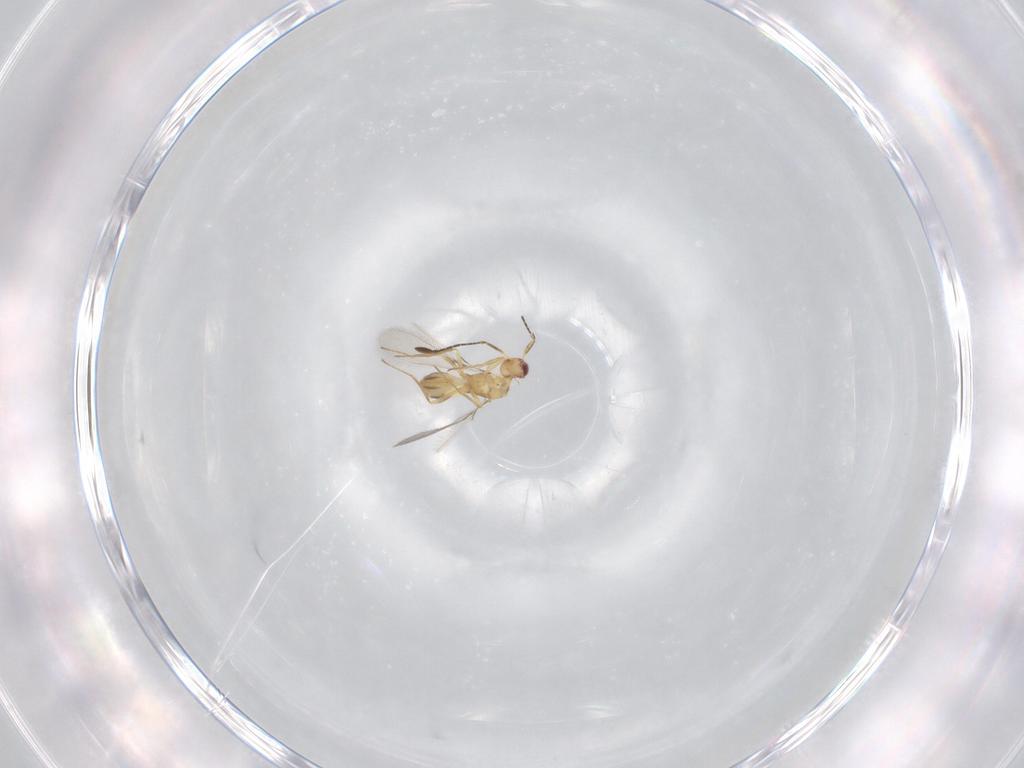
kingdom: Animalia
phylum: Arthropoda
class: Insecta
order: Hymenoptera
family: Mymaridae
